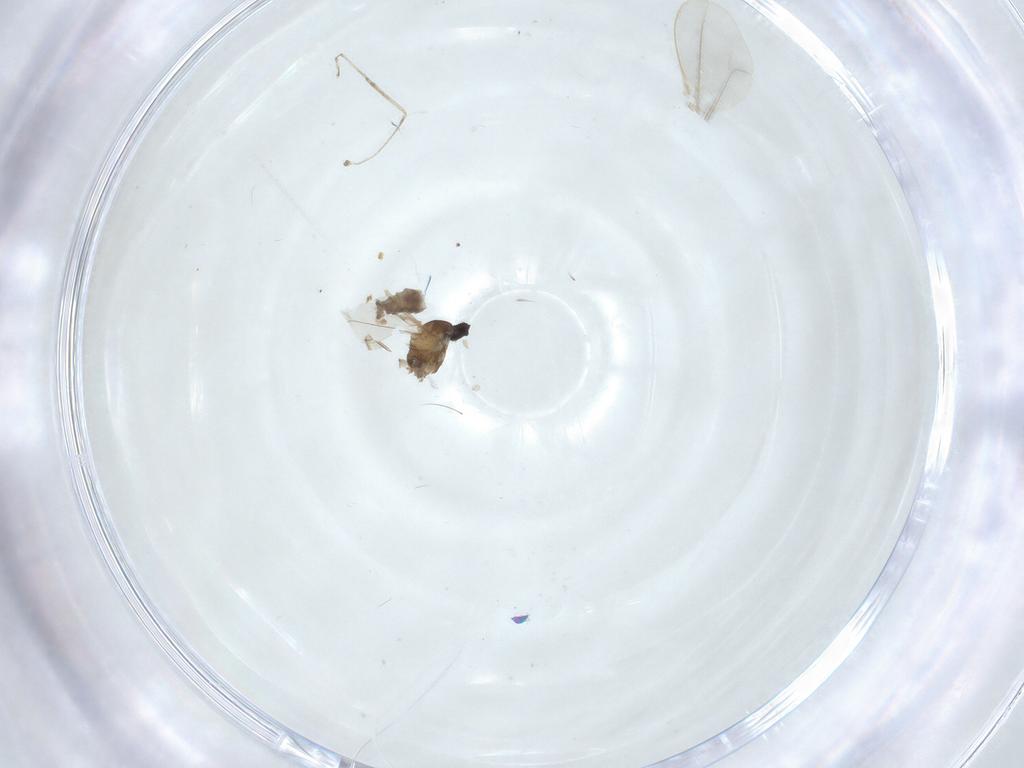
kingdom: Animalia
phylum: Arthropoda
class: Insecta
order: Diptera
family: Cecidomyiidae
